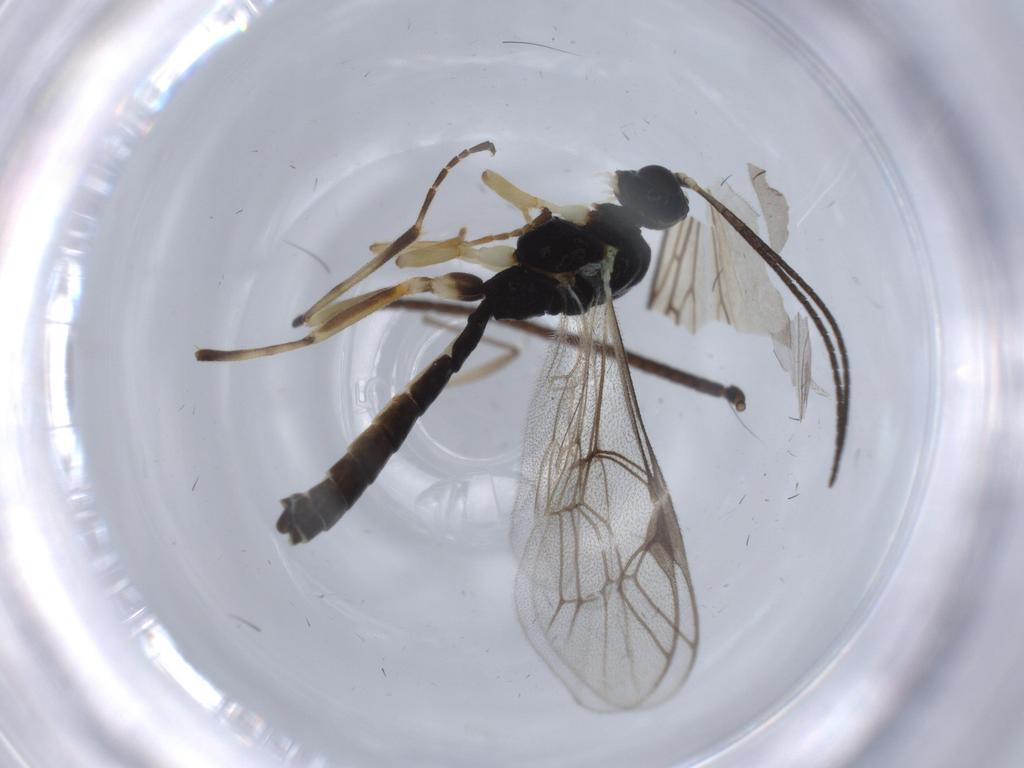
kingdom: Animalia
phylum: Arthropoda
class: Insecta
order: Hymenoptera
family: Ichneumonidae
